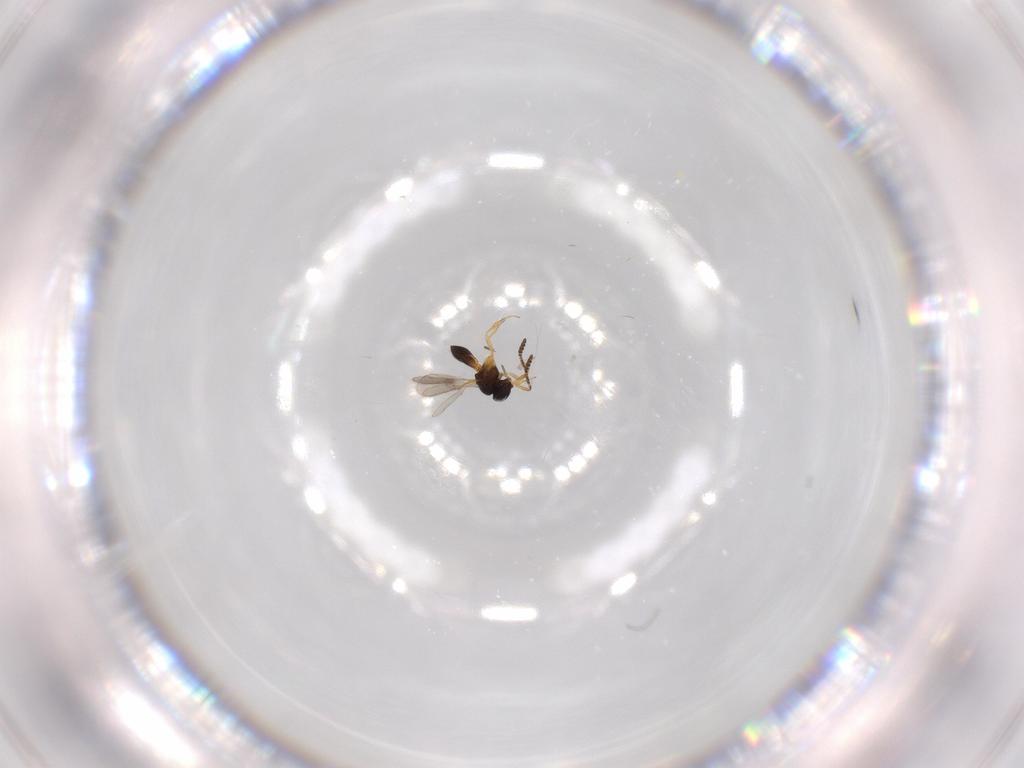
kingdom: Animalia
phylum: Arthropoda
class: Insecta
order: Hymenoptera
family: Scelionidae
